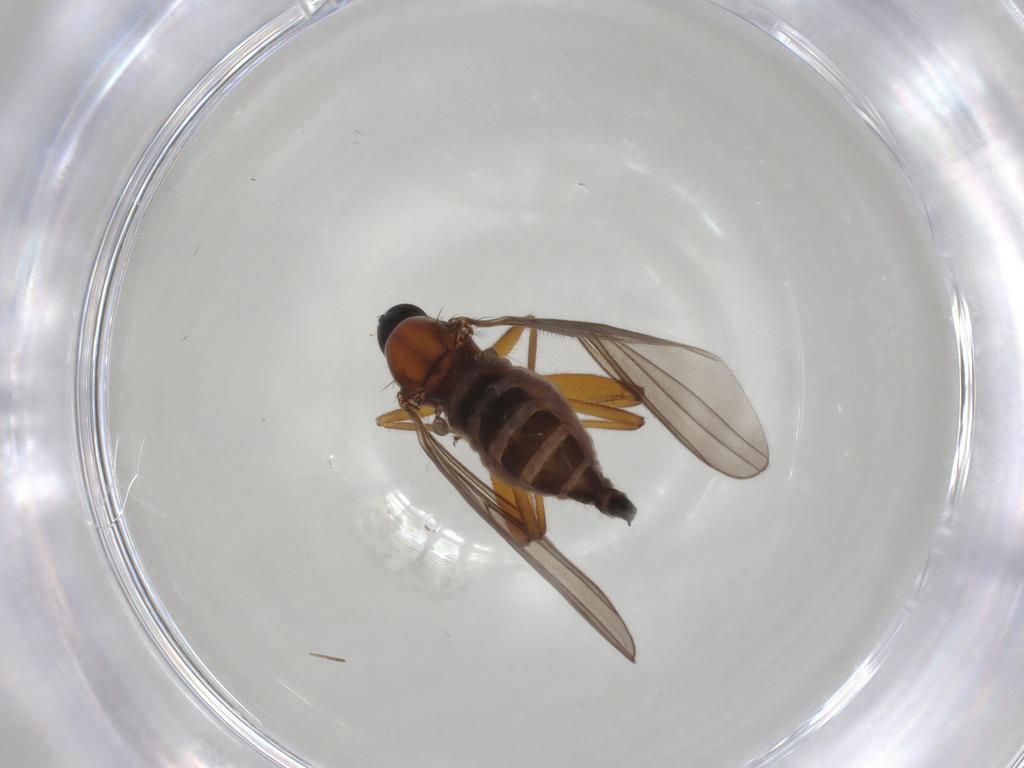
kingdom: Animalia
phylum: Arthropoda
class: Insecta
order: Diptera
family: Hybotidae
